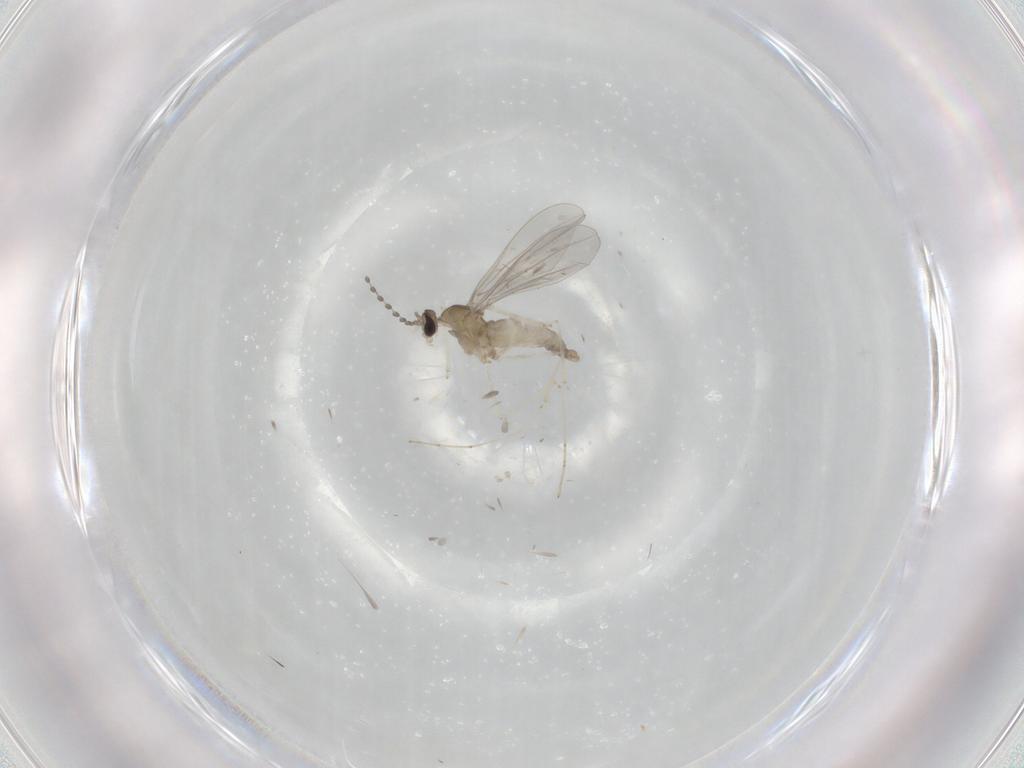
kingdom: Animalia
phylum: Arthropoda
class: Insecta
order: Diptera
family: Cecidomyiidae
